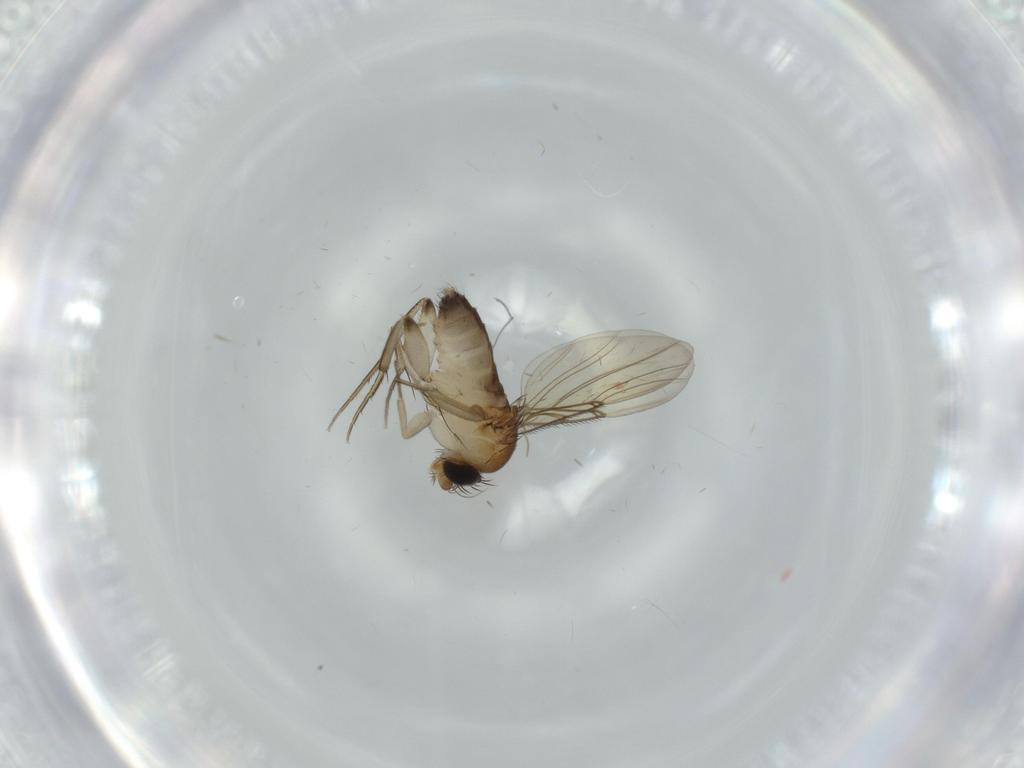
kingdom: Animalia
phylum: Arthropoda
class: Insecta
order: Diptera
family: Phoridae
